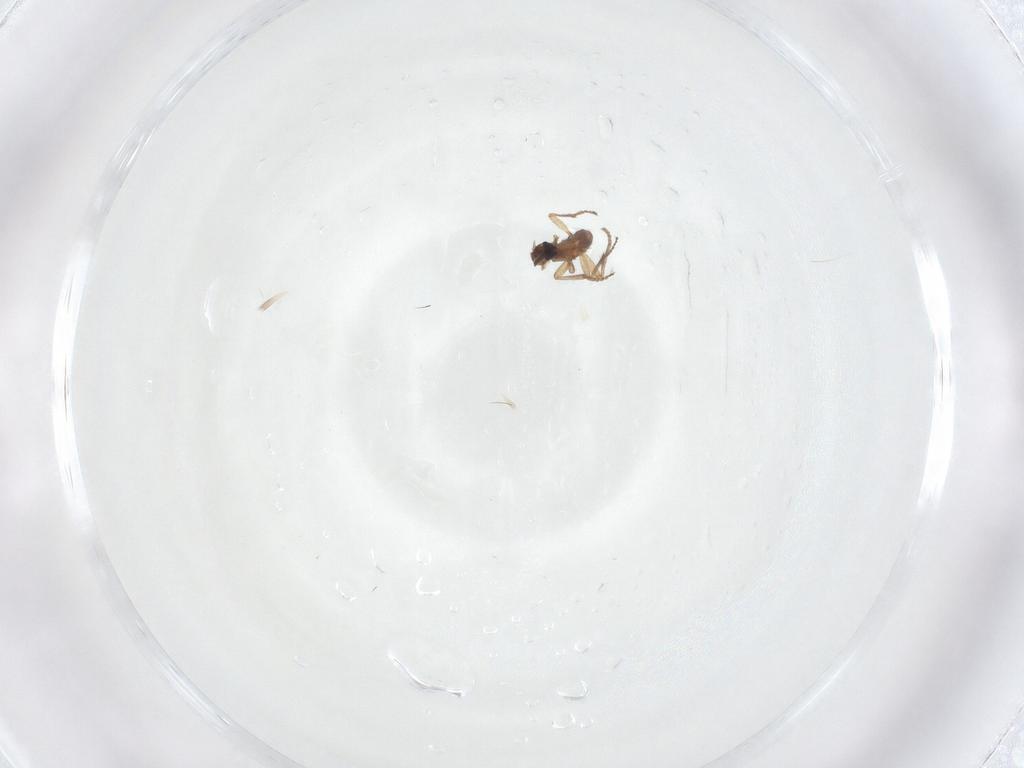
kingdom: Animalia
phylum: Arthropoda
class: Insecta
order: Diptera
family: Sciaridae
